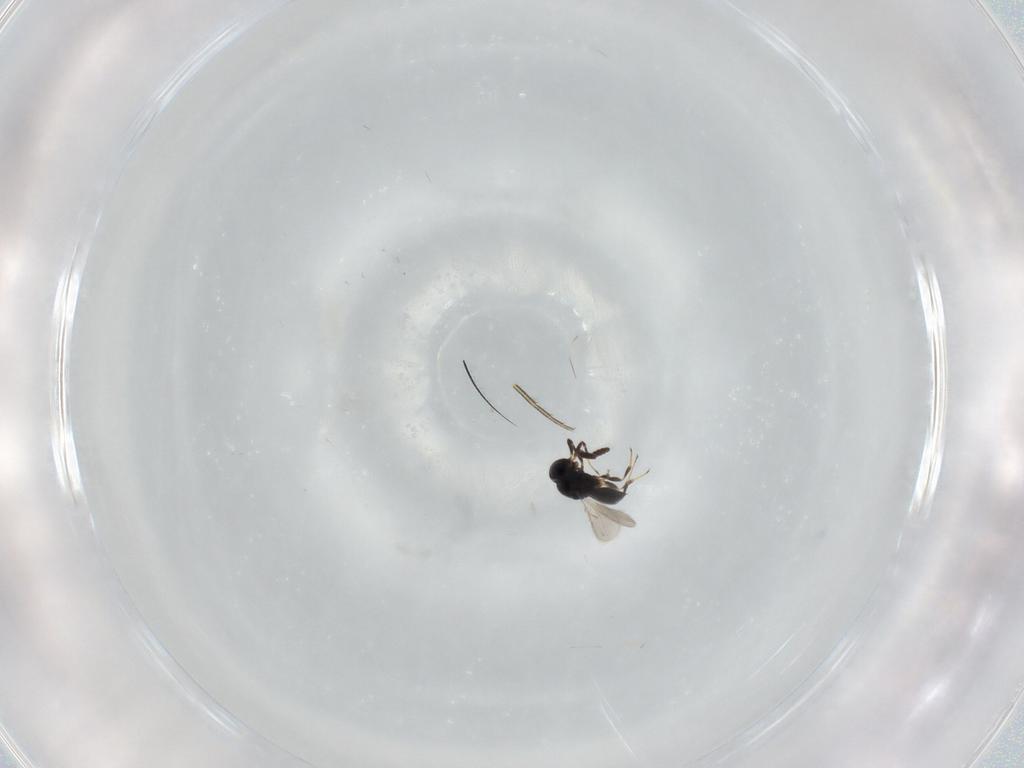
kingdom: Animalia
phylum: Arthropoda
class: Insecta
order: Hymenoptera
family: Scelionidae
